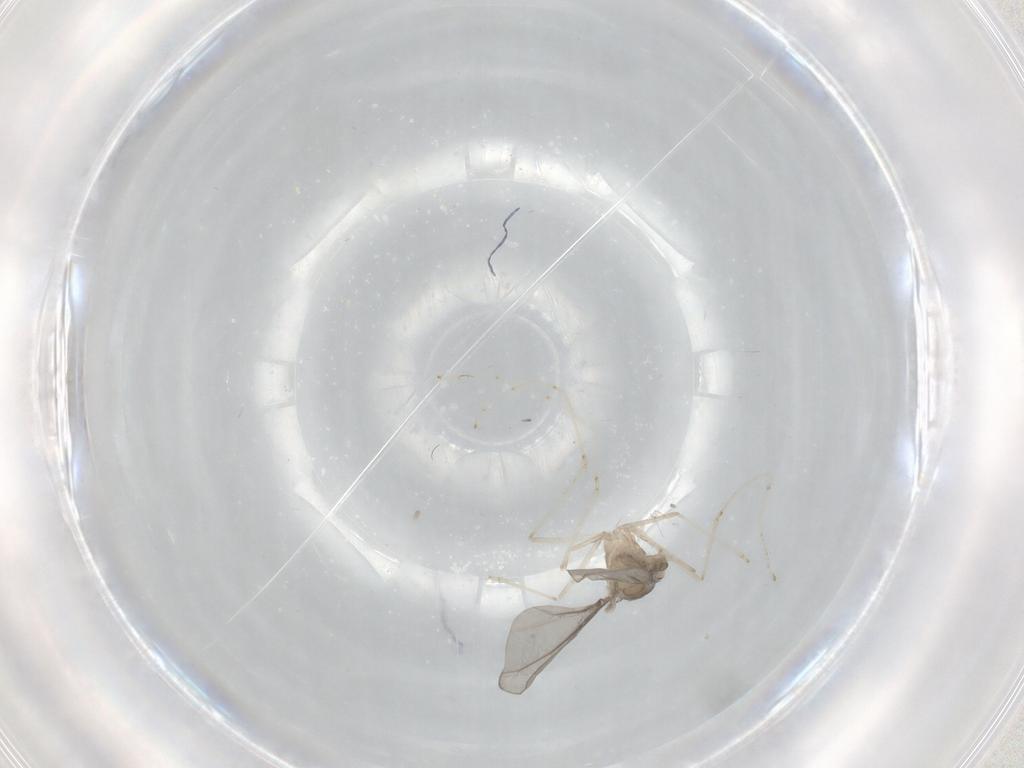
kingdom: Animalia
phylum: Arthropoda
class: Insecta
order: Diptera
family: Cecidomyiidae
